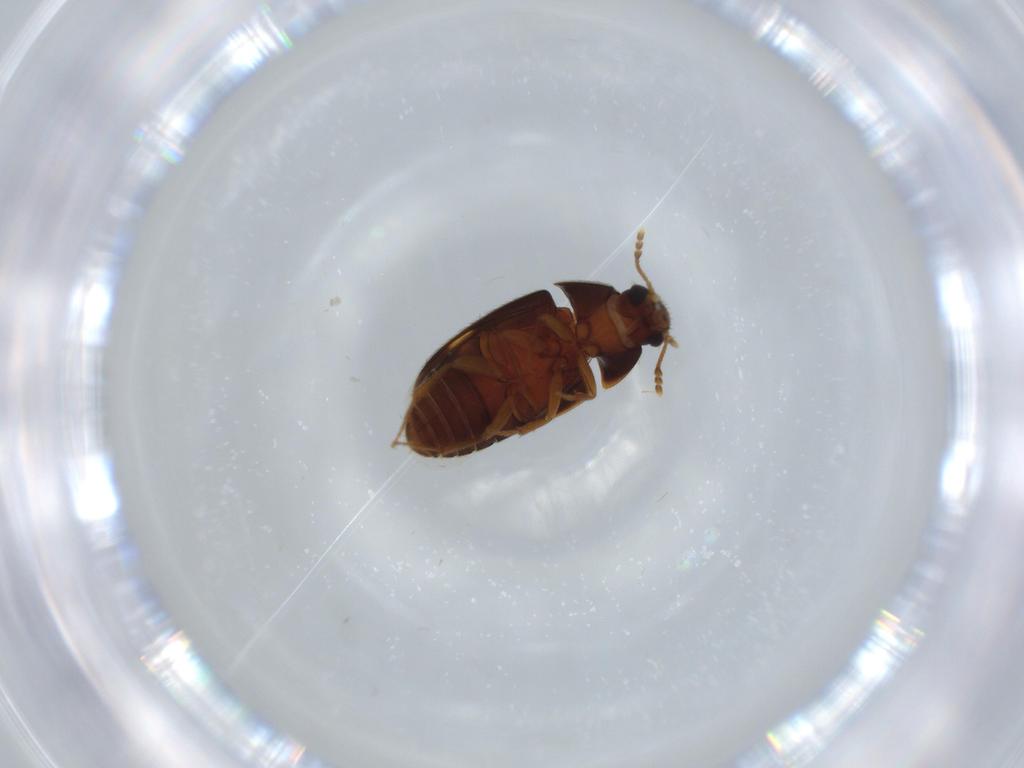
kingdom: Animalia
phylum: Arthropoda
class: Insecta
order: Coleoptera
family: Mycetophagidae
